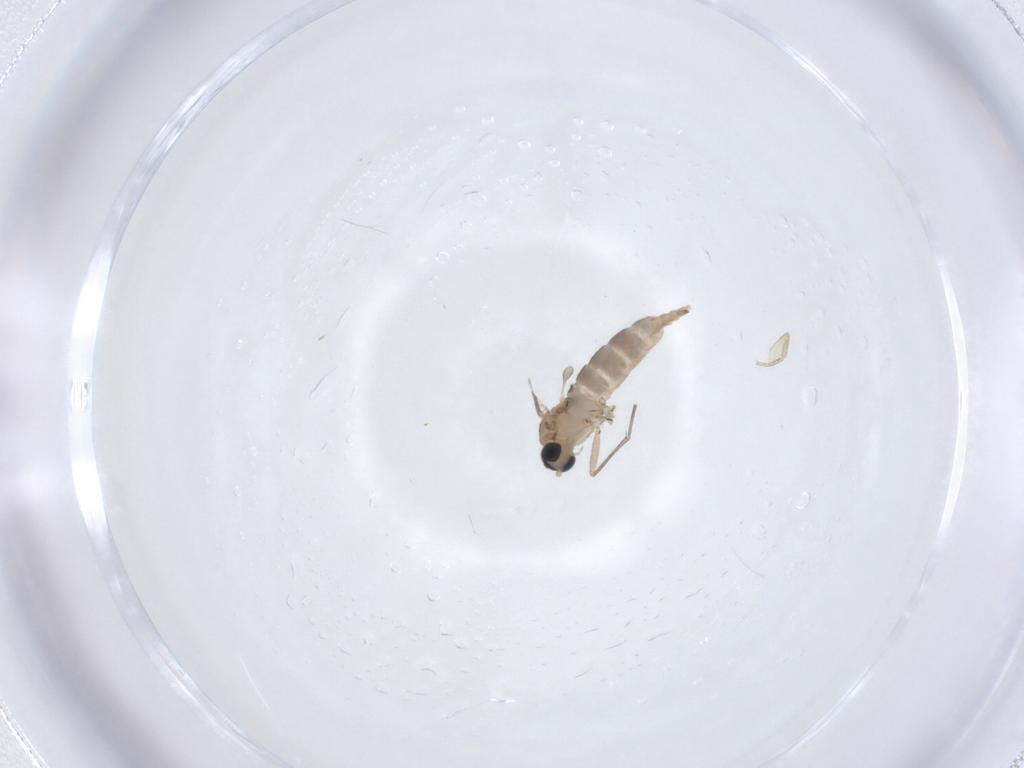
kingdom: Animalia
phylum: Arthropoda
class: Insecta
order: Diptera
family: Sciaridae
